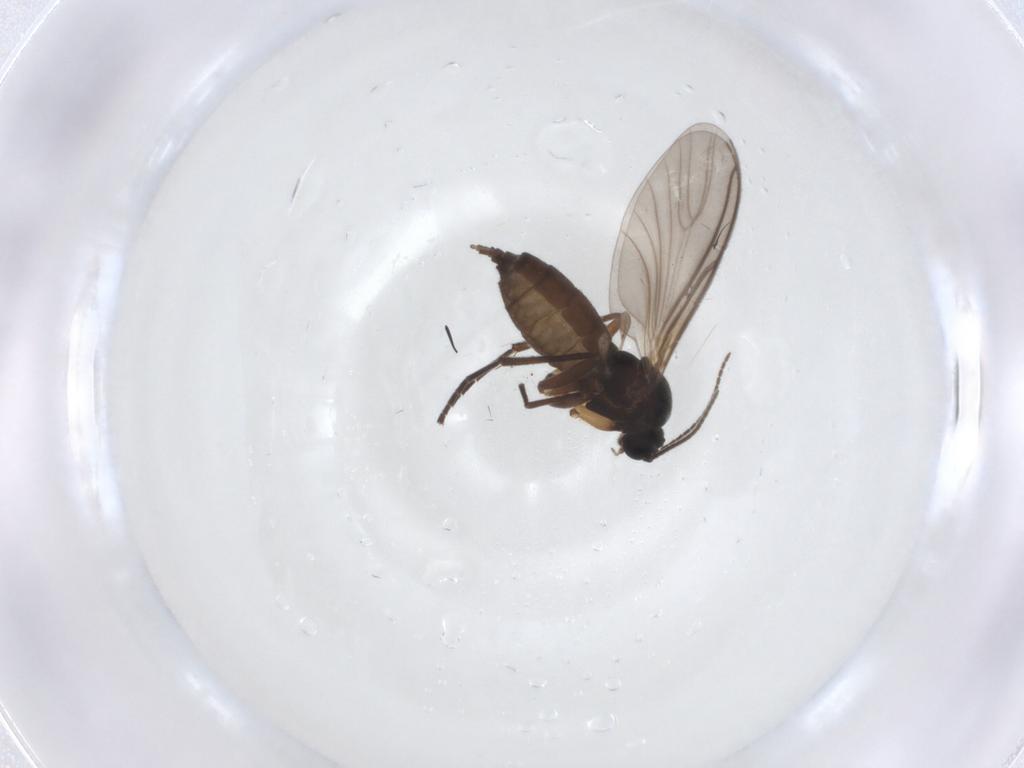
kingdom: Animalia
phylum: Arthropoda
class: Insecta
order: Diptera
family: Sciaridae
